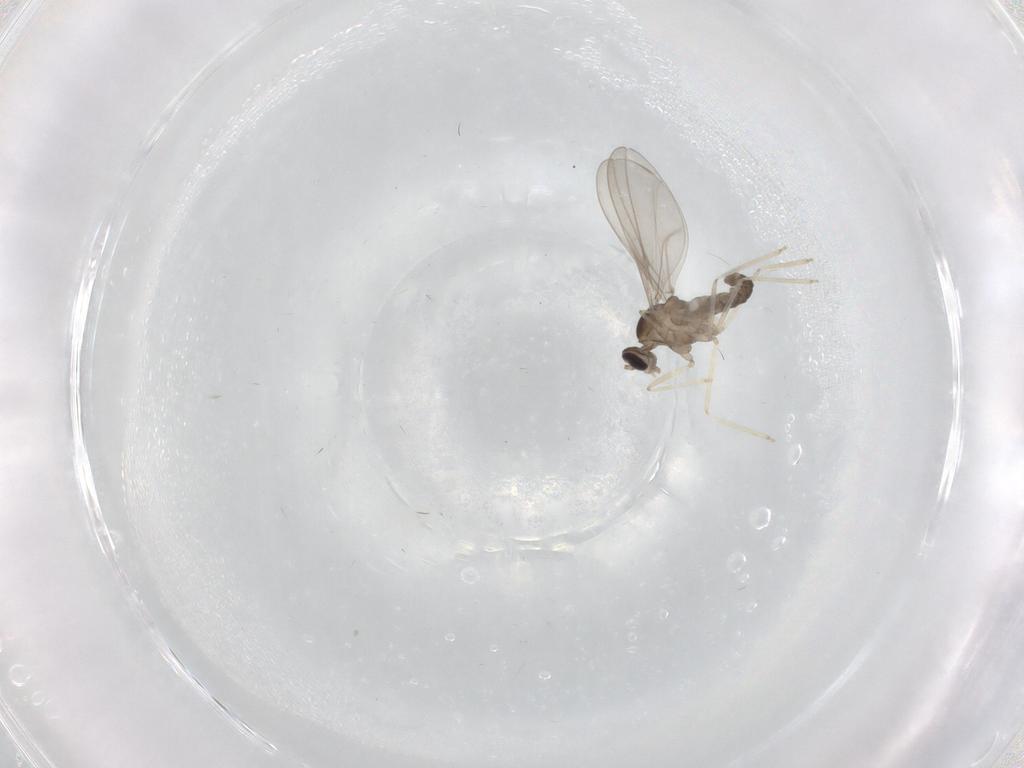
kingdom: Animalia
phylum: Arthropoda
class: Insecta
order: Diptera
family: Cecidomyiidae
